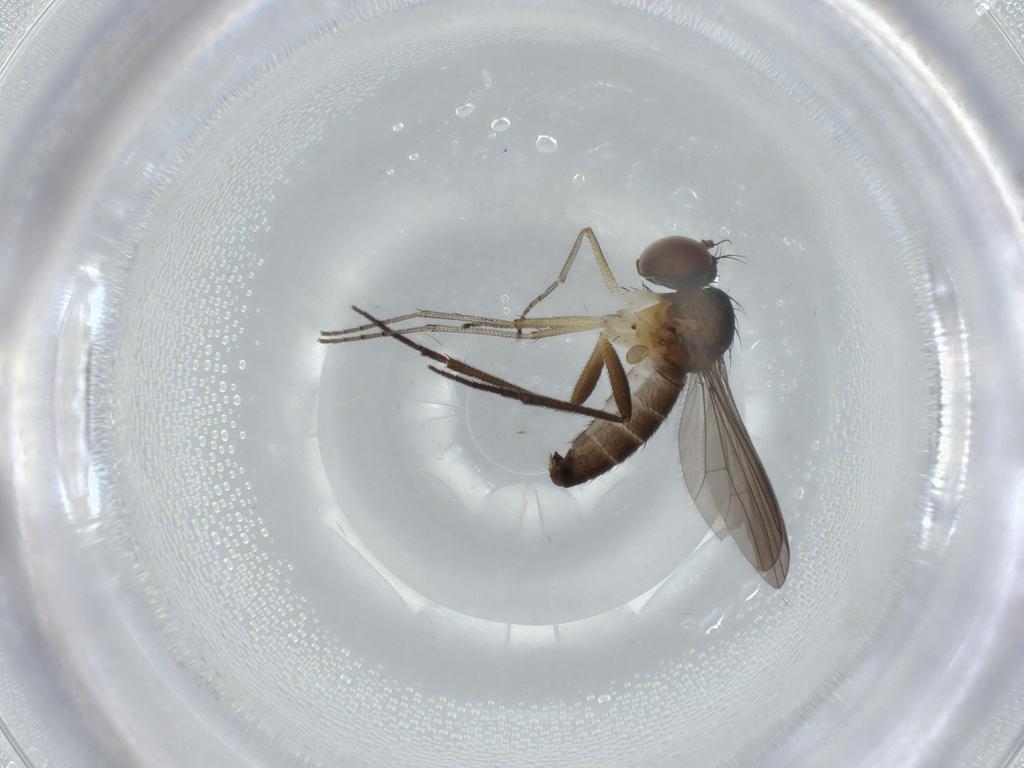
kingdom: Animalia
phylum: Arthropoda
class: Insecta
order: Diptera
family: Dolichopodidae
